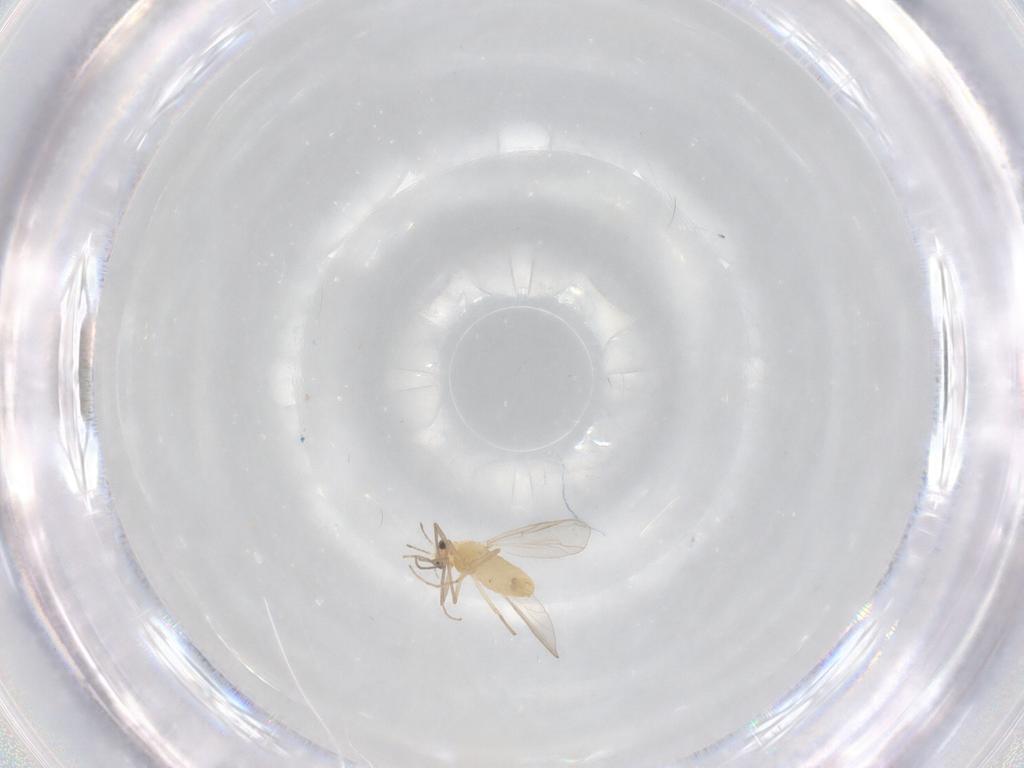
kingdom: Animalia
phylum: Arthropoda
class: Insecta
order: Diptera
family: Chironomidae
